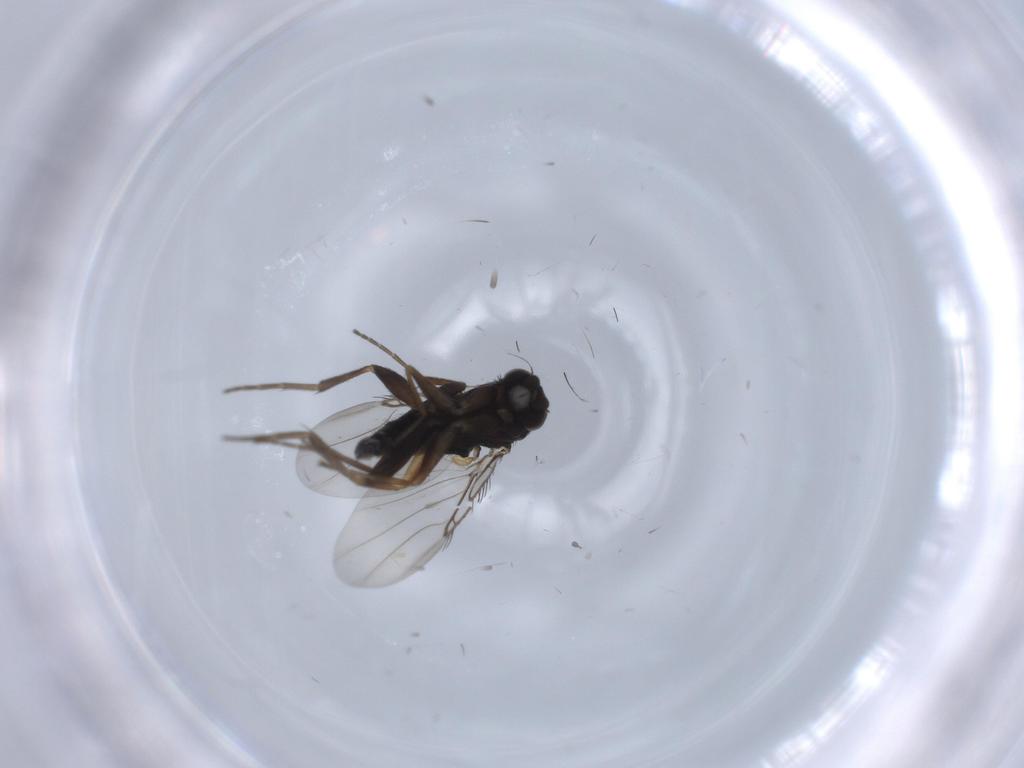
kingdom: Animalia
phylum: Arthropoda
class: Insecta
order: Diptera
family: Phoridae
